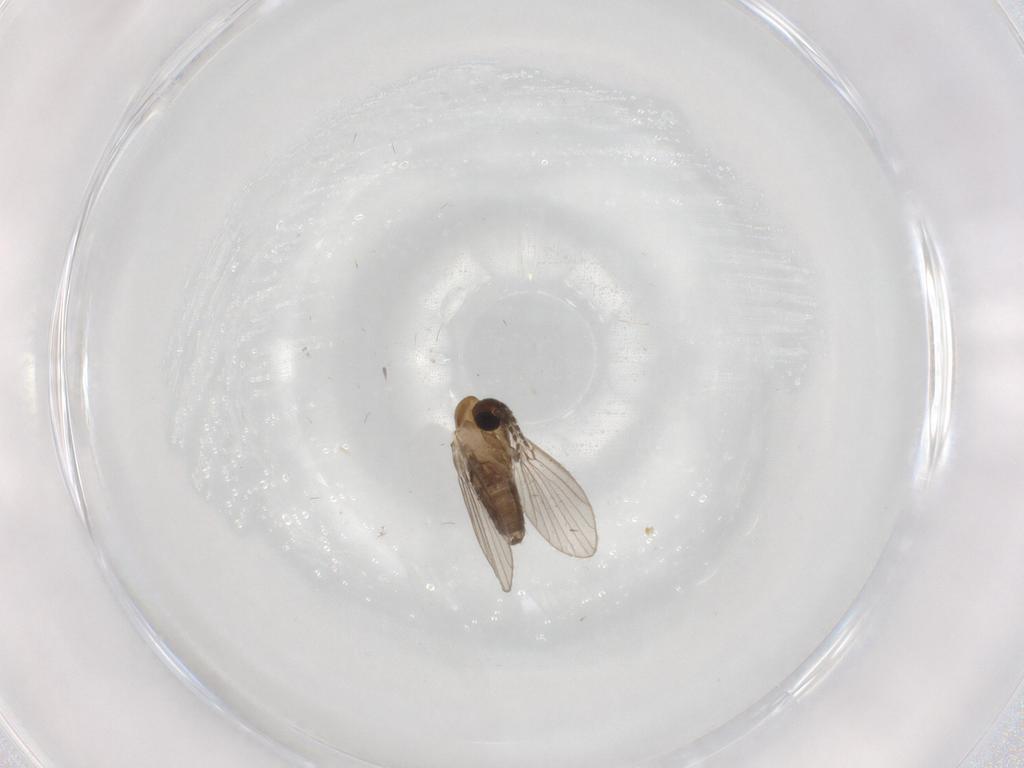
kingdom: Animalia
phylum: Arthropoda
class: Insecta
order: Diptera
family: Psychodidae
